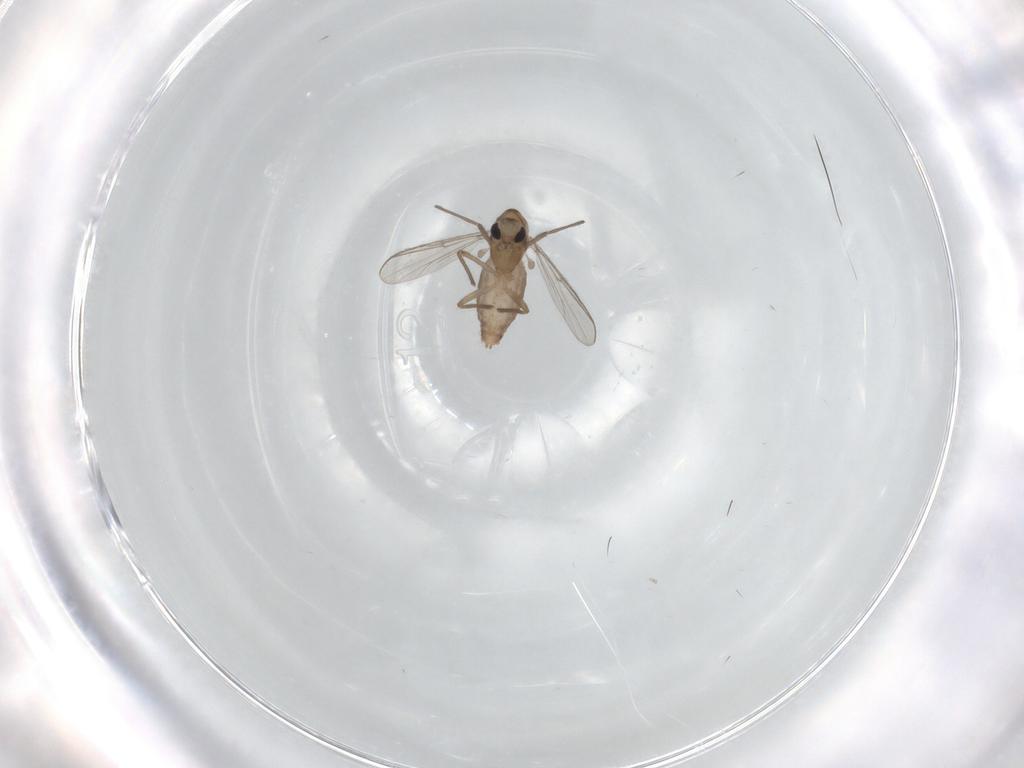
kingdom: Animalia
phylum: Arthropoda
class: Insecta
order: Diptera
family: Chironomidae
